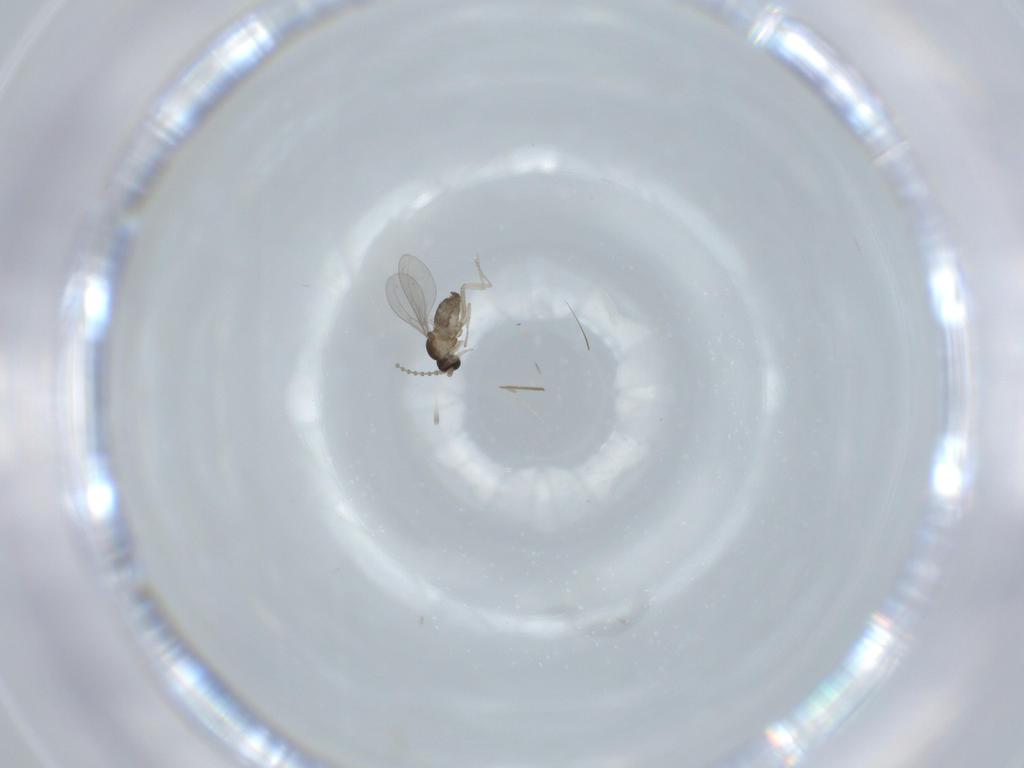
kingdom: Animalia
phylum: Arthropoda
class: Insecta
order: Diptera
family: Cecidomyiidae
